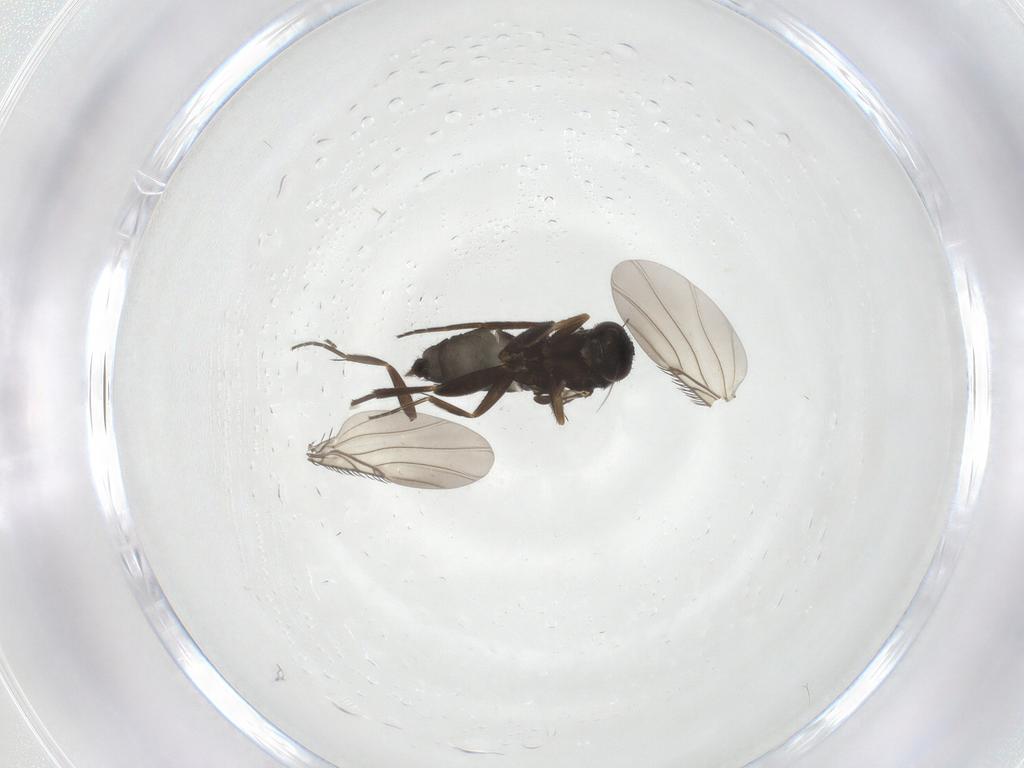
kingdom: Animalia
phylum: Arthropoda
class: Insecta
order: Diptera
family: Phoridae
